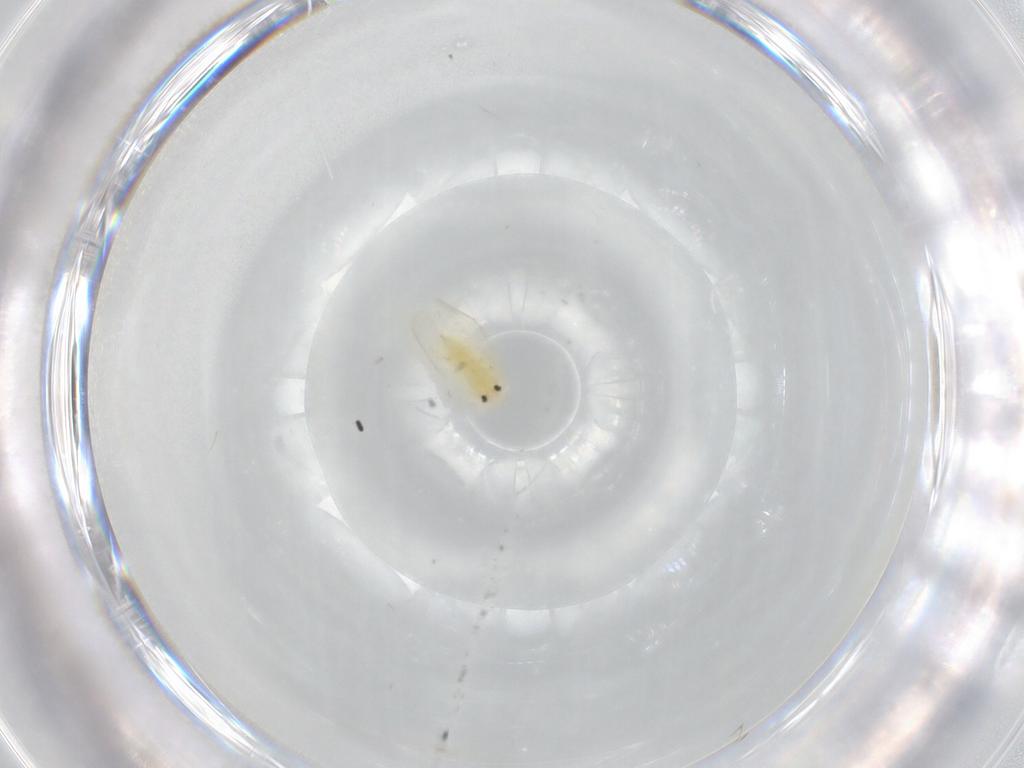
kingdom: Animalia
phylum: Arthropoda
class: Insecta
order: Hemiptera
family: Aleyrodidae
